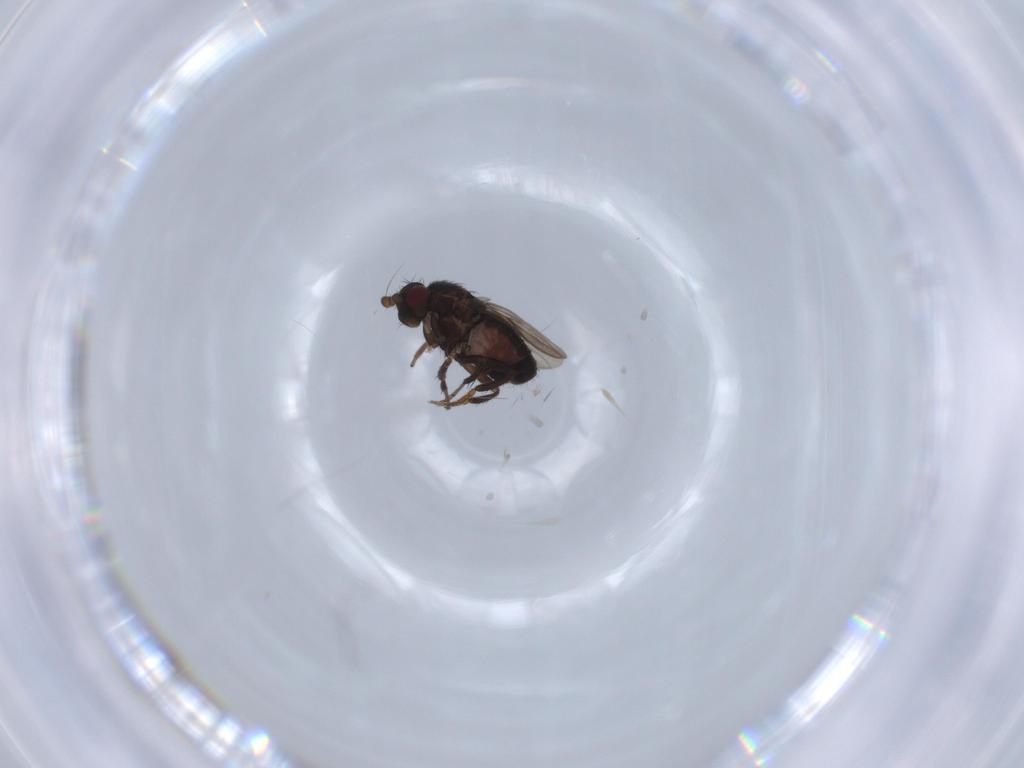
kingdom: Animalia
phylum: Arthropoda
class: Insecta
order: Diptera
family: Sphaeroceridae
